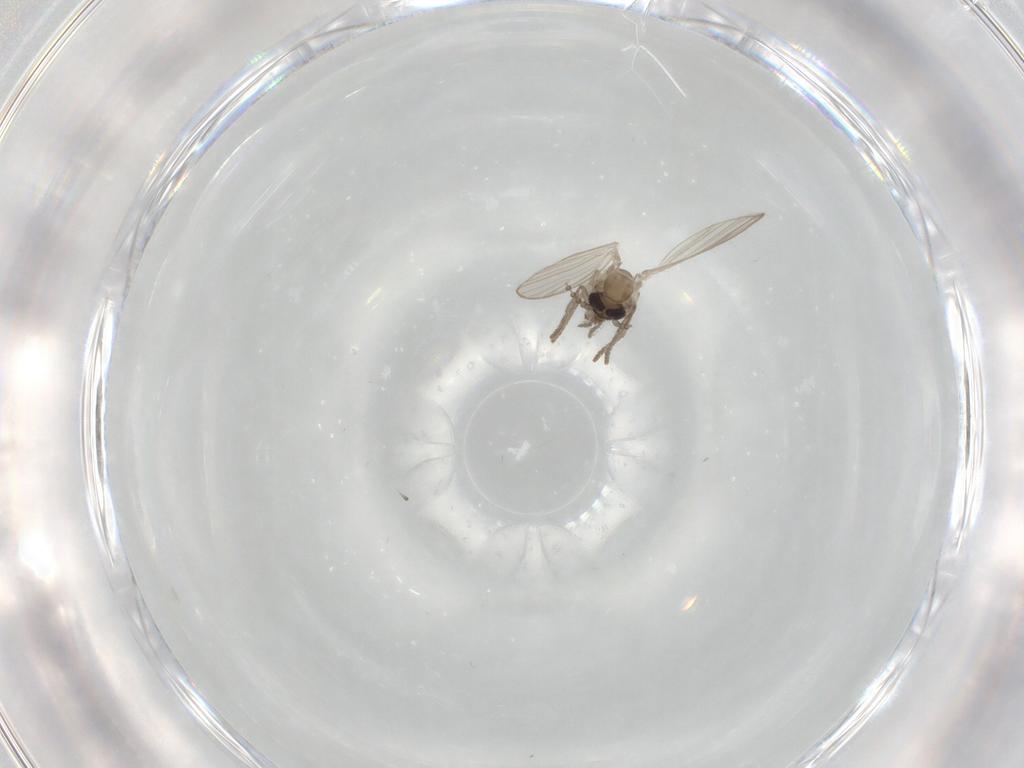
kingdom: Animalia
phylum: Arthropoda
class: Insecta
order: Diptera
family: Psychodidae
